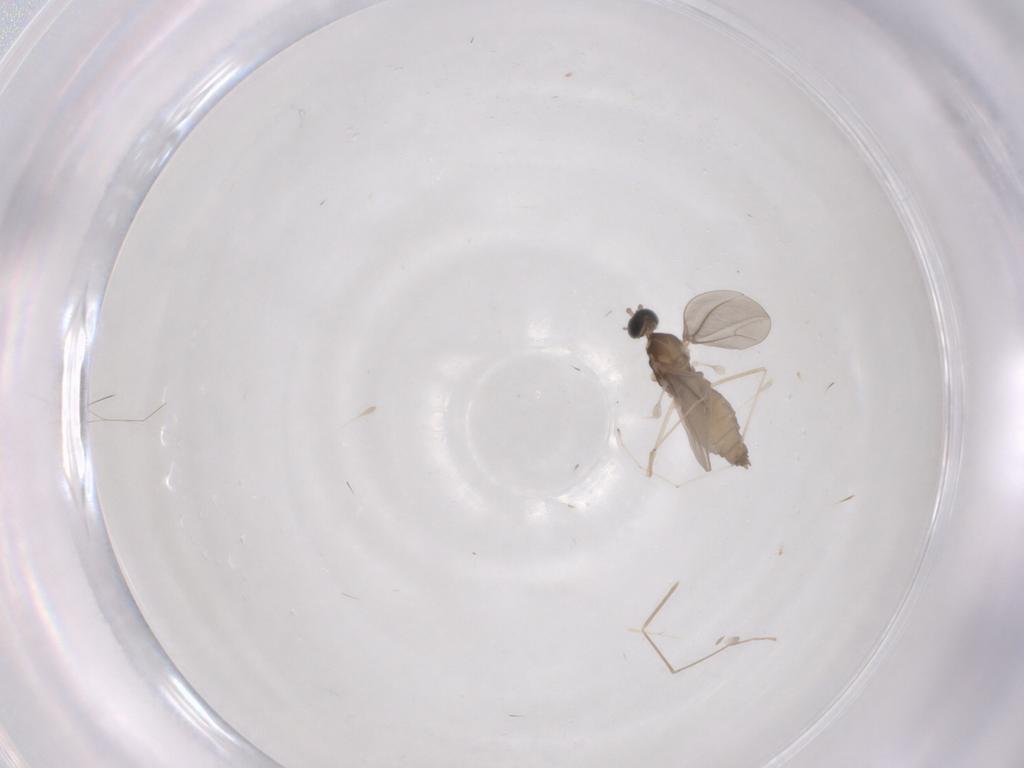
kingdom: Animalia
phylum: Arthropoda
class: Insecta
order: Diptera
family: Cecidomyiidae
